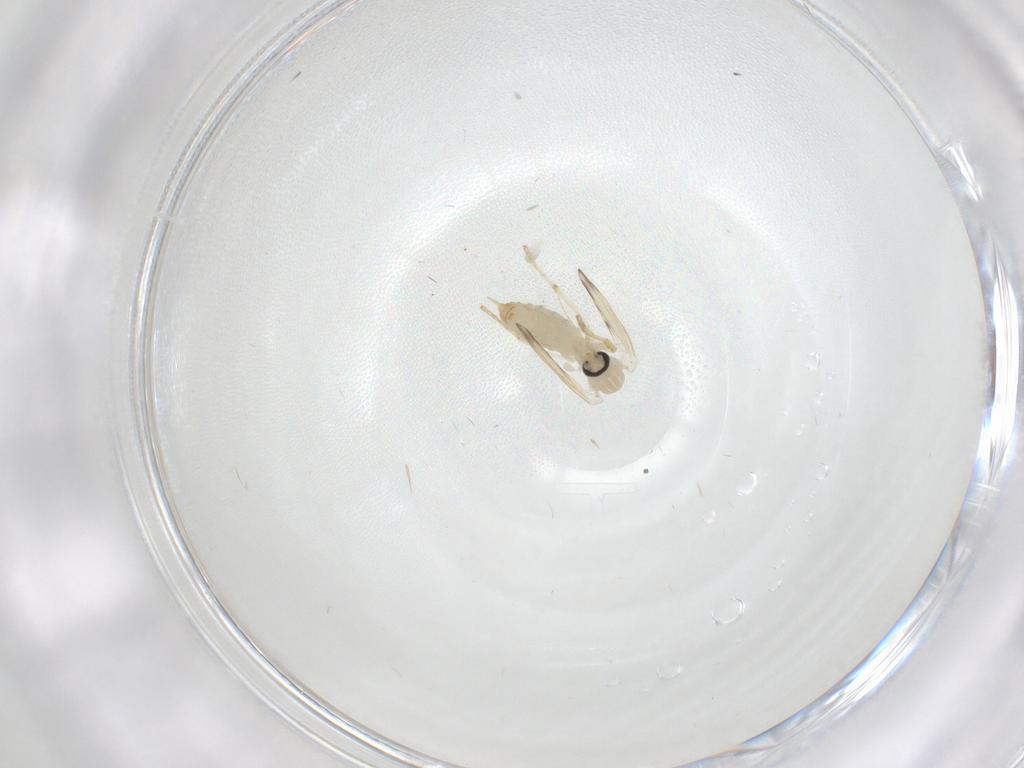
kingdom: Animalia
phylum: Arthropoda
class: Insecta
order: Diptera
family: Psychodidae
